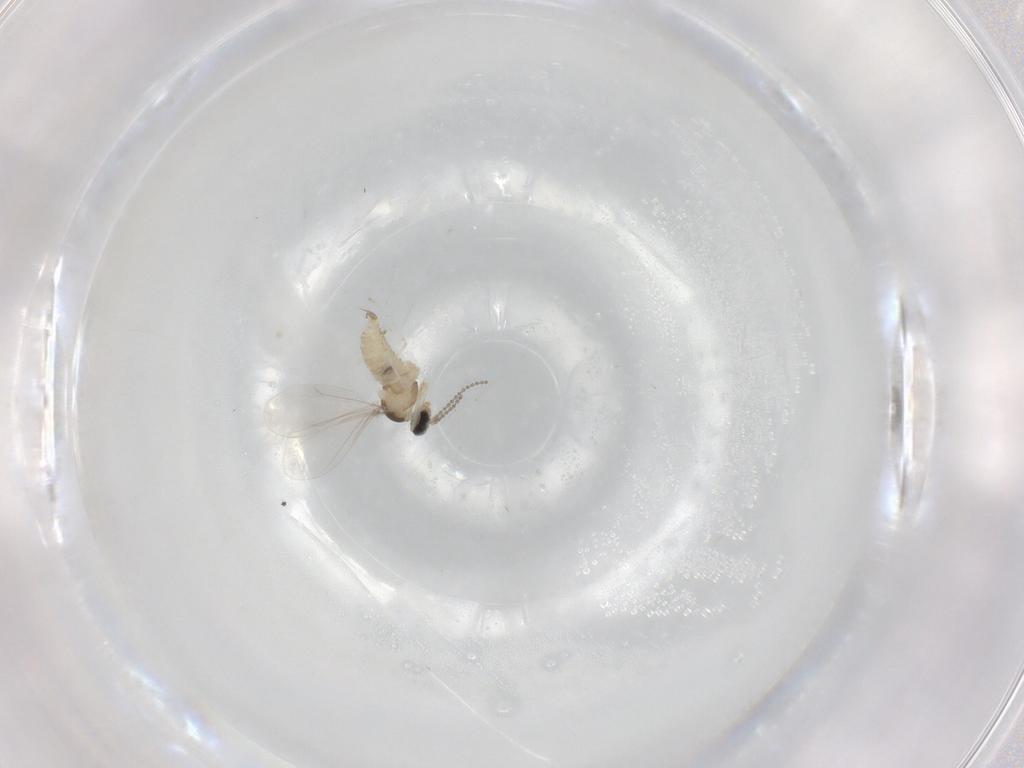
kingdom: Animalia
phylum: Arthropoda
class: Insecta
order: Diptera
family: Cecidomyiidae
